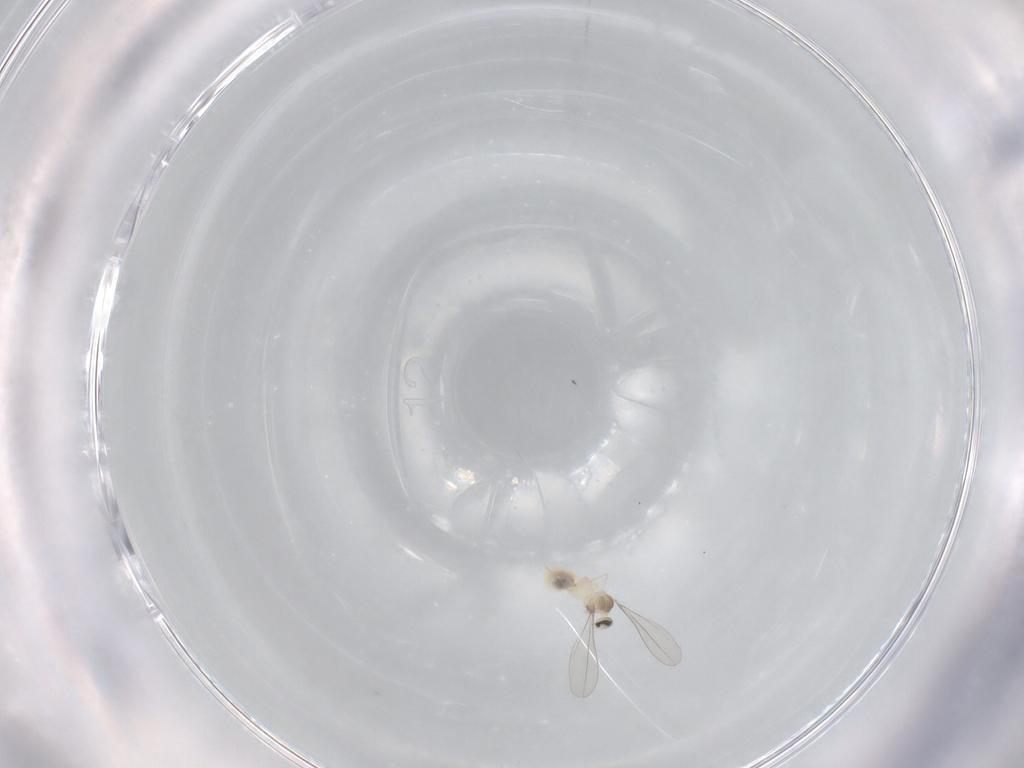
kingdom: Animalia
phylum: Arthropoda
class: Insecta
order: Diptera
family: Cecidomyiidae
